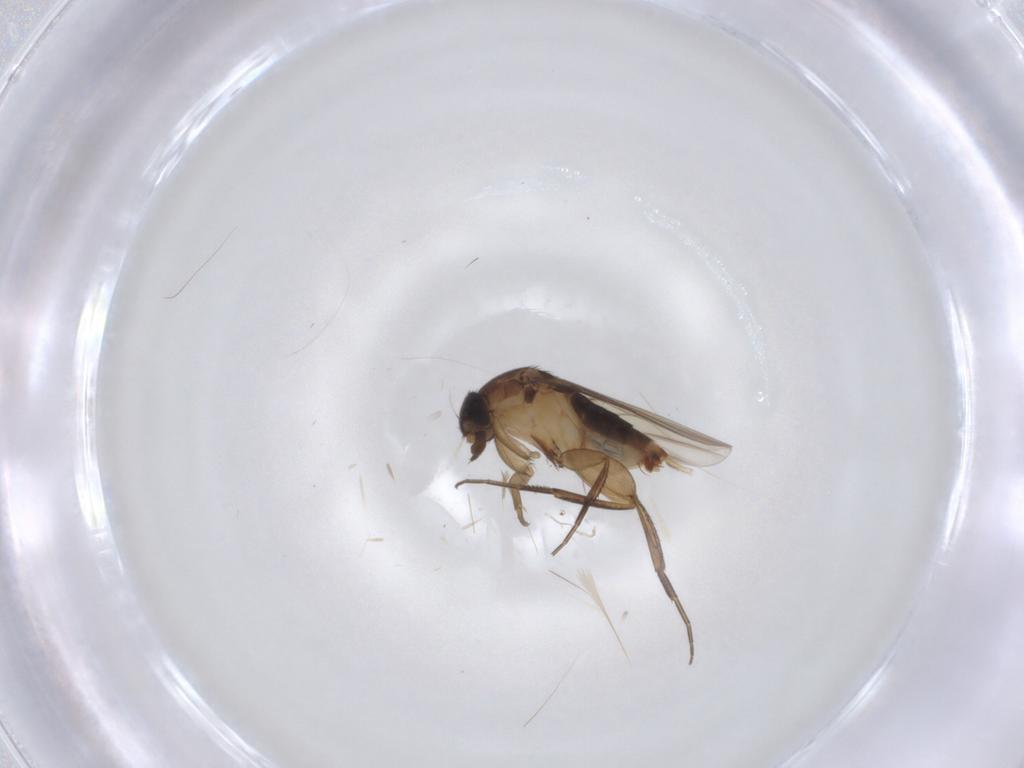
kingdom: Animalia
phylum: Arthropoda
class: Insecta
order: Diptera
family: Phoridae
